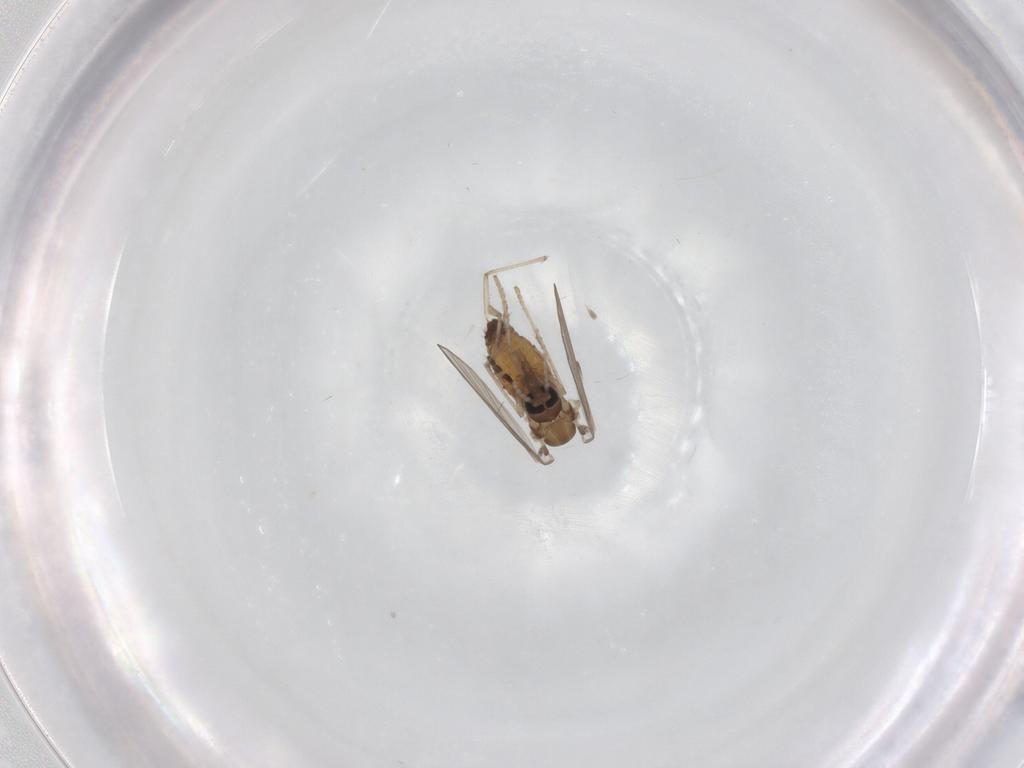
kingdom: Animalia
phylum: Arthropoda
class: Insecta
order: Diptera
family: Psychodidae
